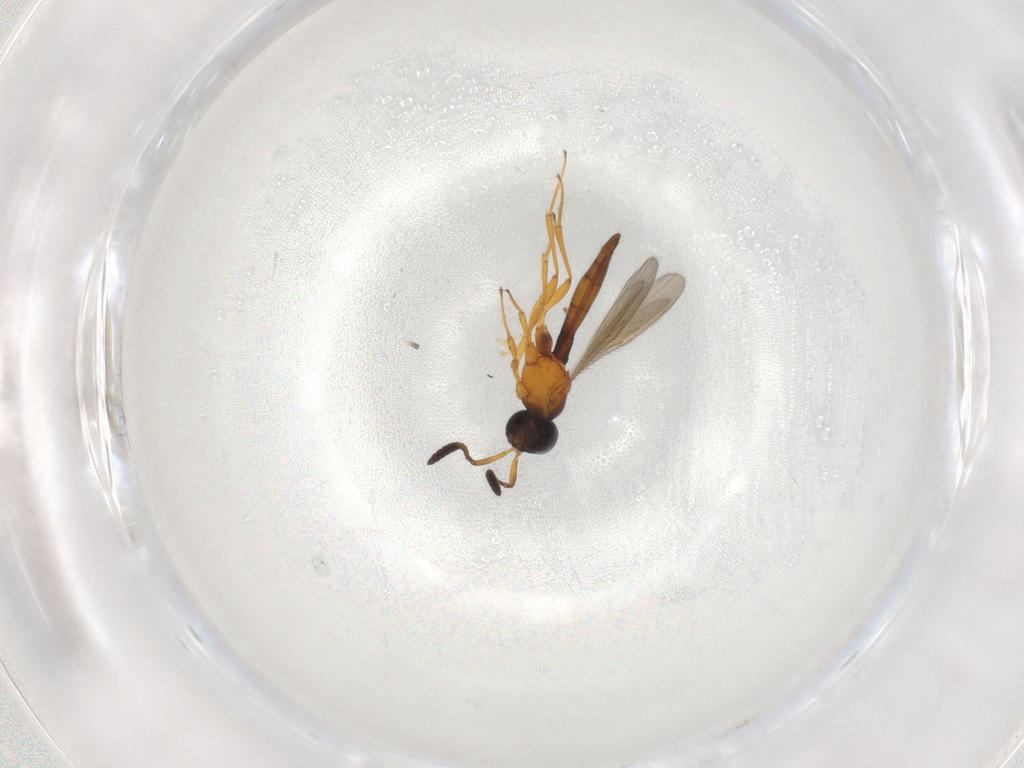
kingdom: Animalia
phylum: Arthropoda
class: Insecta
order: Hymenoptera
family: Scelionidae
